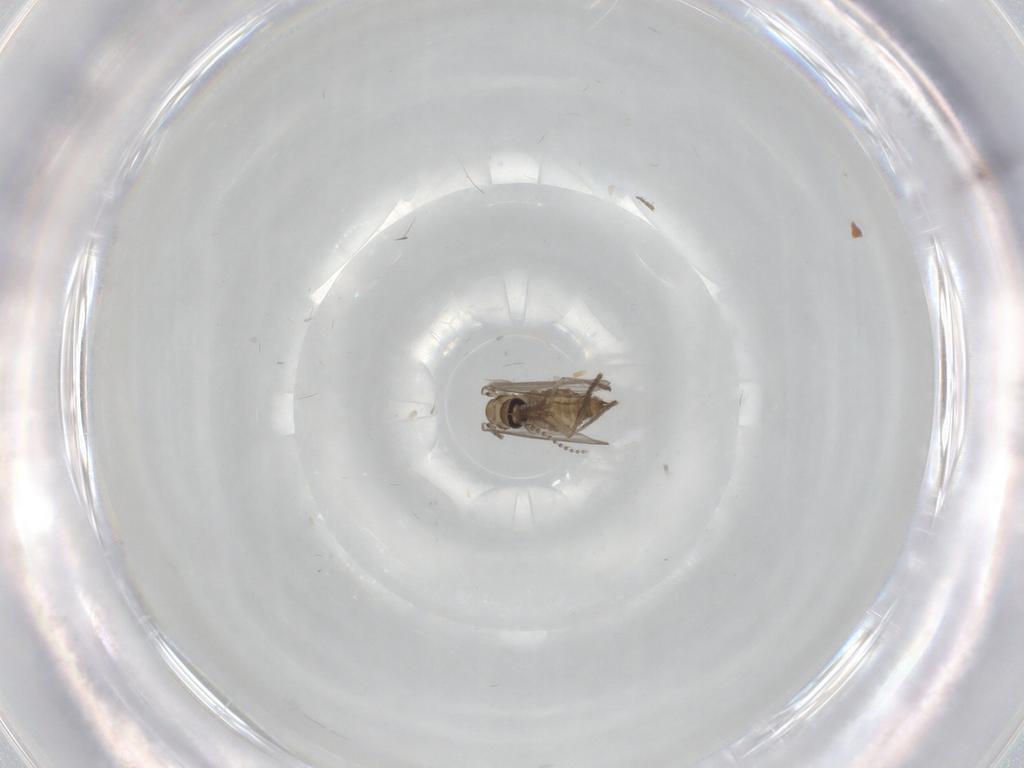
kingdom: Animalia
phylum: Arthropoda
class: Insecta
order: Diptera
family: Psychodidae
